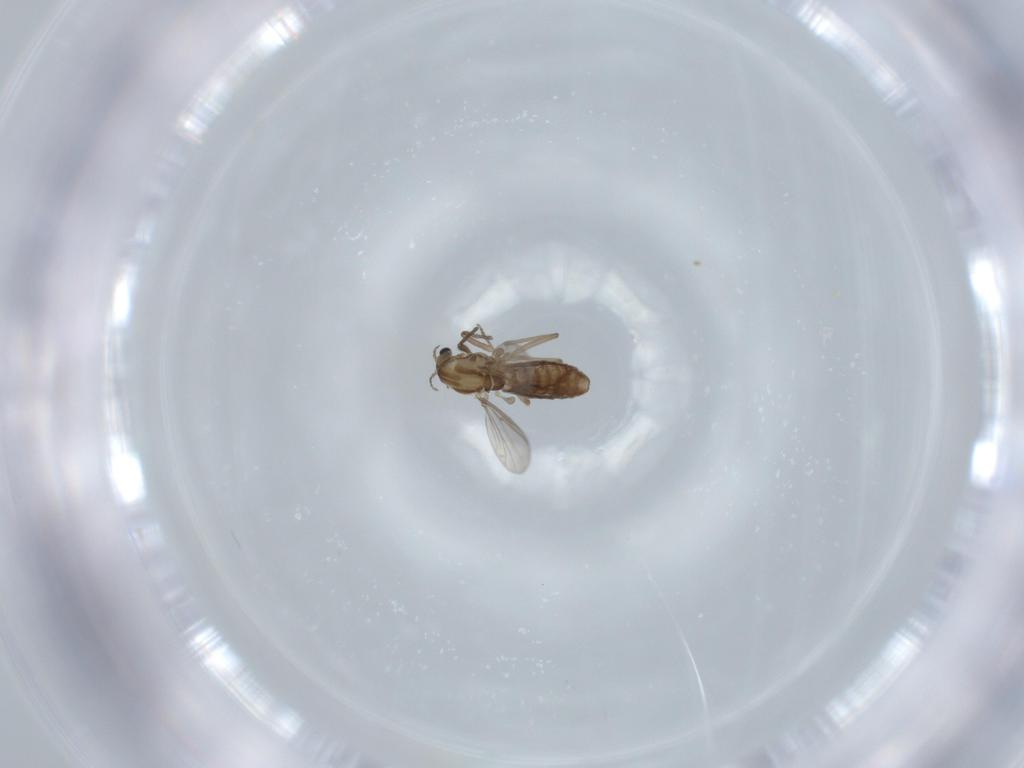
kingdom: Animalia
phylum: Arthropoda
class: Insecta
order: Diptera
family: Chironomidae
